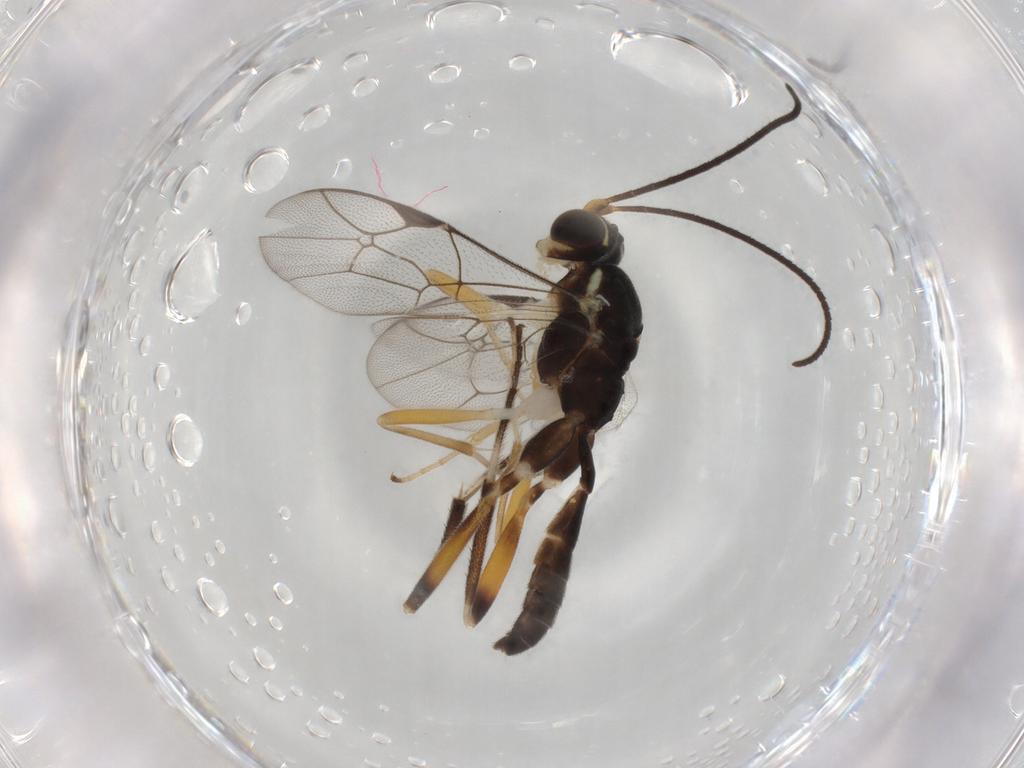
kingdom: Animalia
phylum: Arthropoda
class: Insecta
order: Hymenoptera
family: Ichneumonidae
